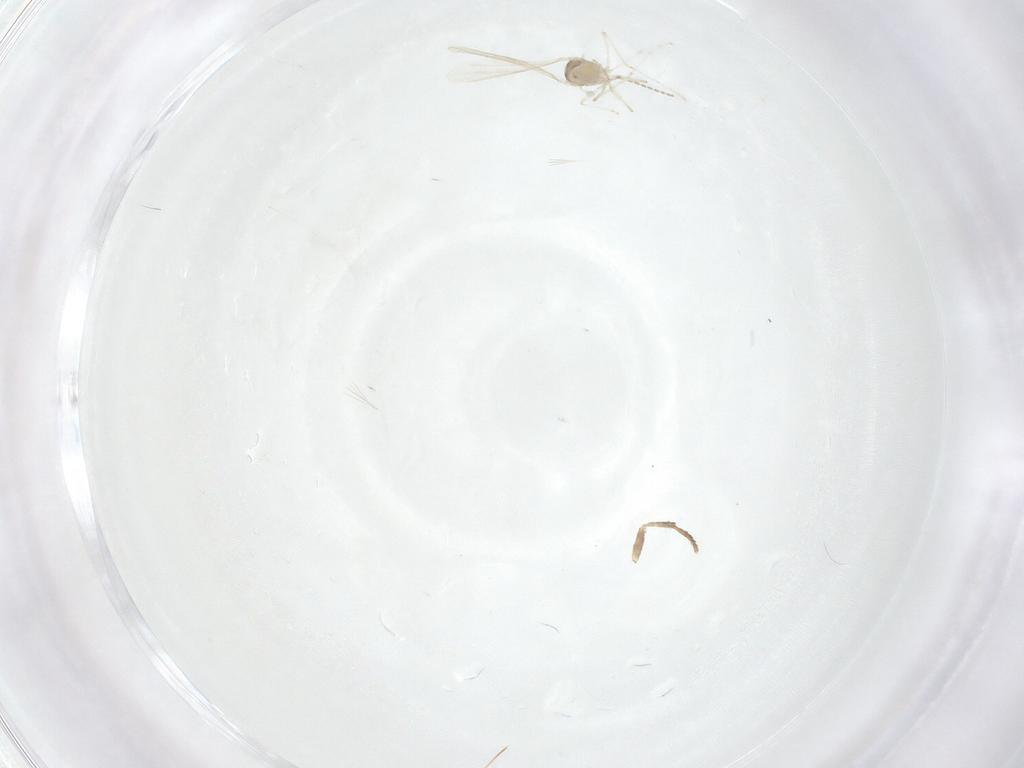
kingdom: Animalia
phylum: Arthropoda
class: Insecta
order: Diptera
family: Cecidomyiidae
